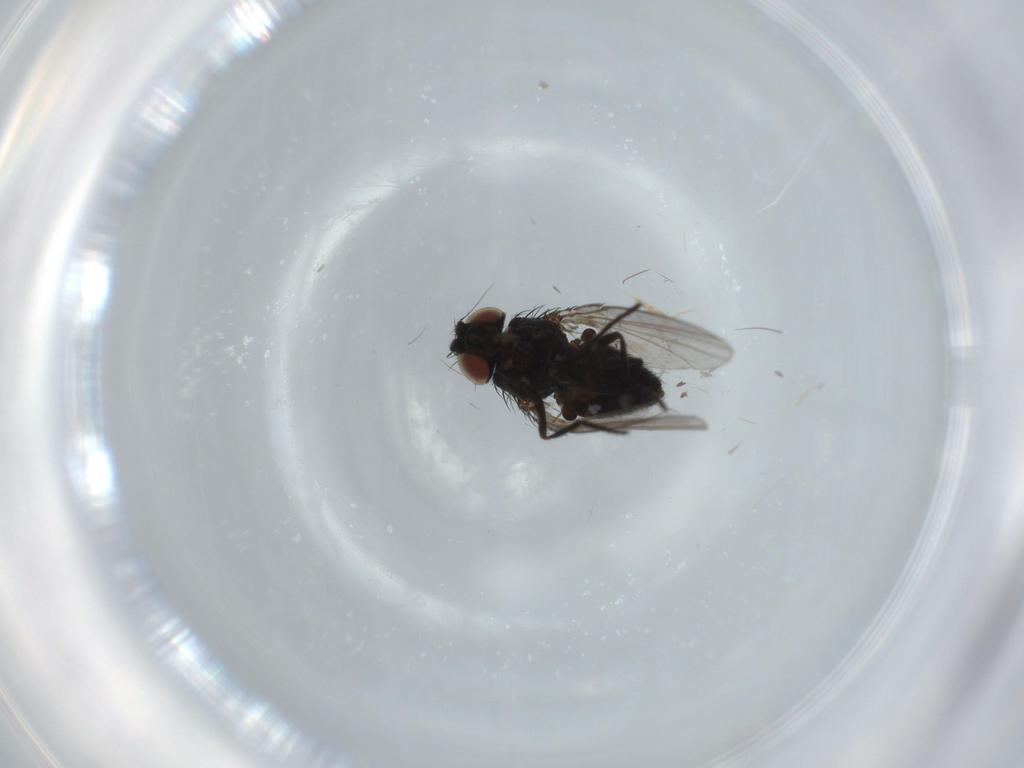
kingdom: Animalia
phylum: Arthropoda
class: Insecta
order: Diptera
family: Milichiidae
